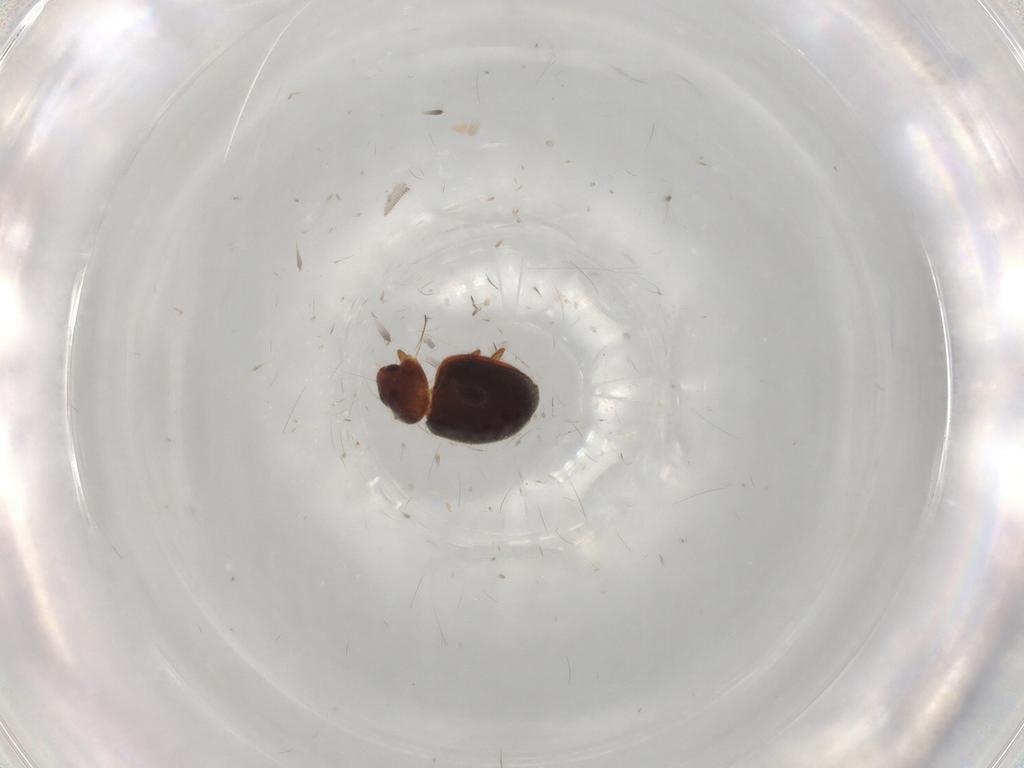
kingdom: Animalia
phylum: Arthropoda
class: Insecta
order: Coleoptera
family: Coccinellidae
